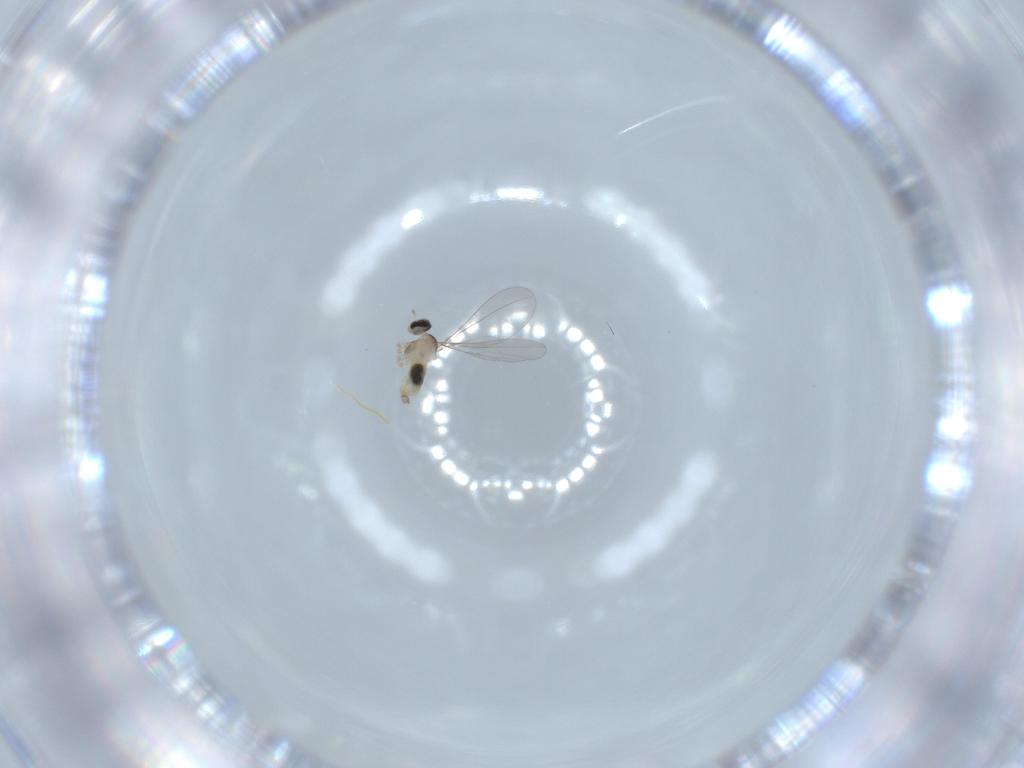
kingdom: Animalia
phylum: Arthropoda
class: Insecta
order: Diptera
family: Cecidomyiidae
